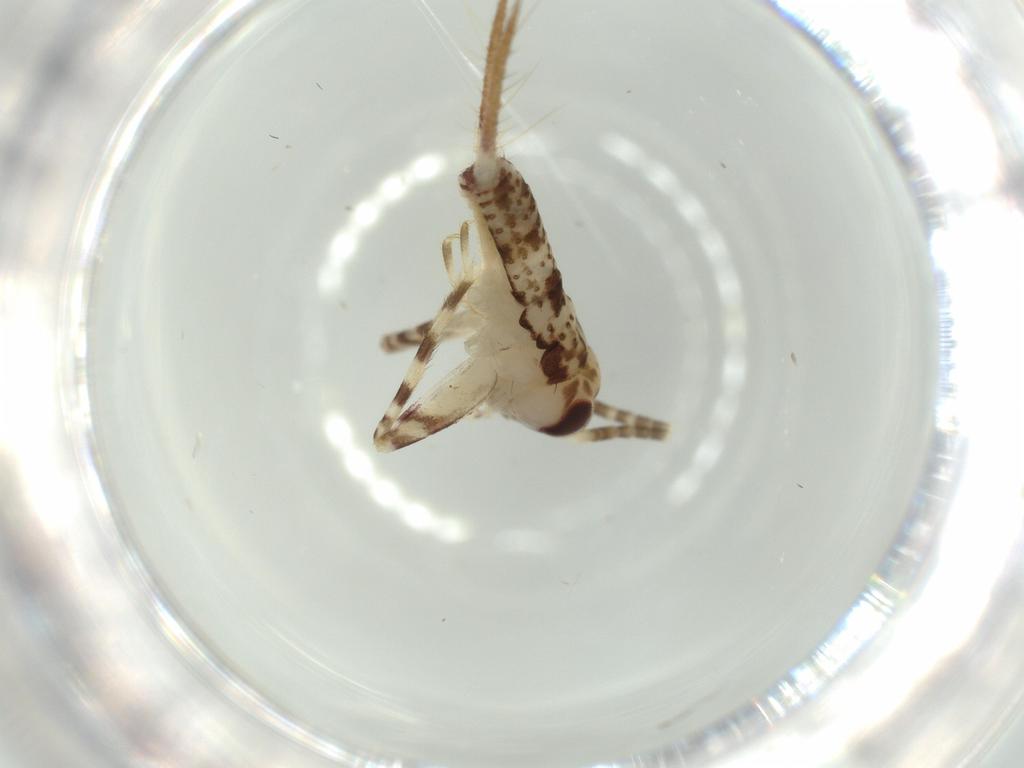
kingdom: Animalia
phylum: Arthropoda
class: Insecta
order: Orthoptera
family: Gryllidae
